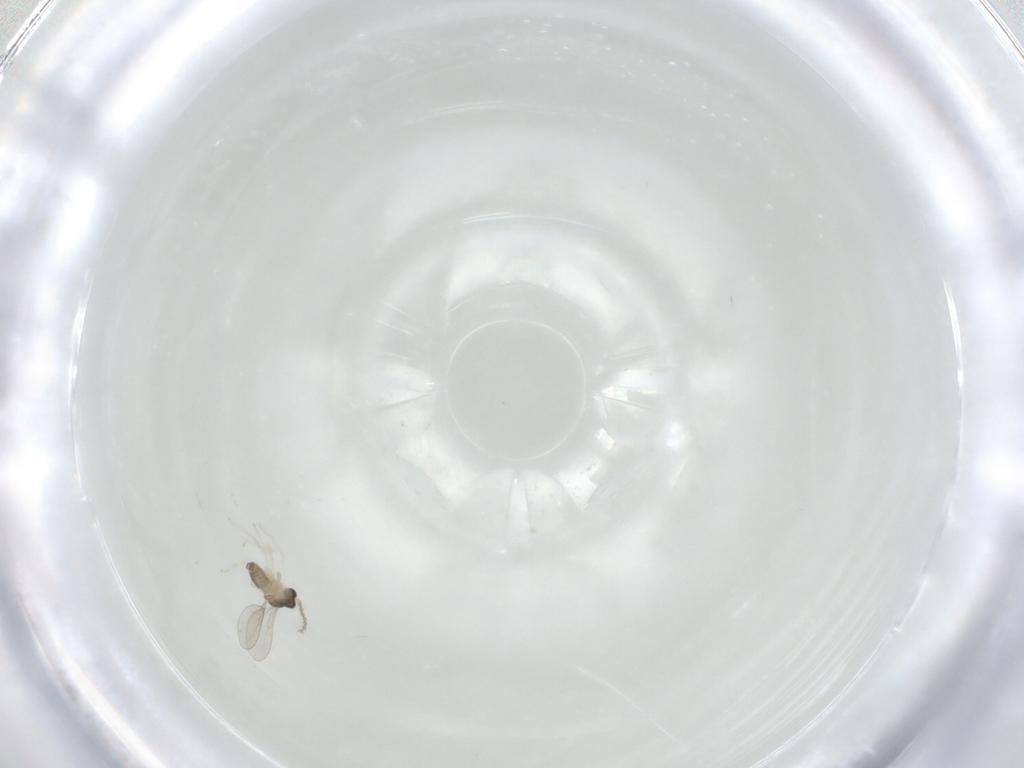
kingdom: Animalia
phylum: Arthropoda
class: Insecta
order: Diptera
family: Cecidomyiidae
